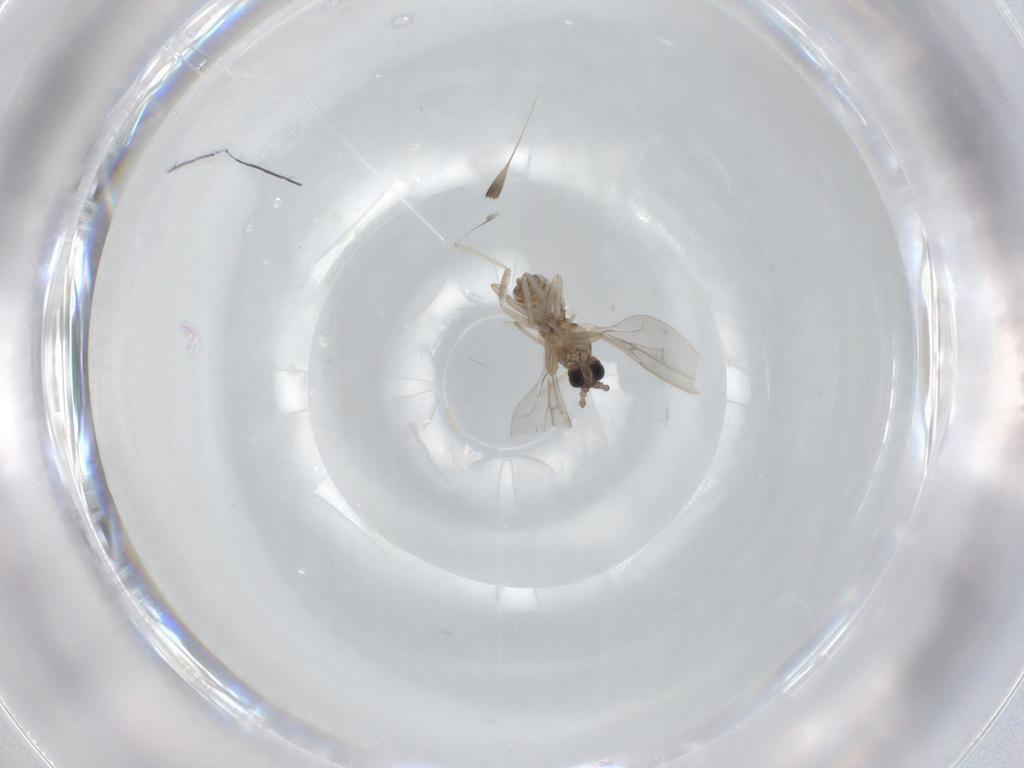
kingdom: Animalia
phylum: Arthropoda
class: Insecta
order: Diptera
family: Cecidomyiidae
